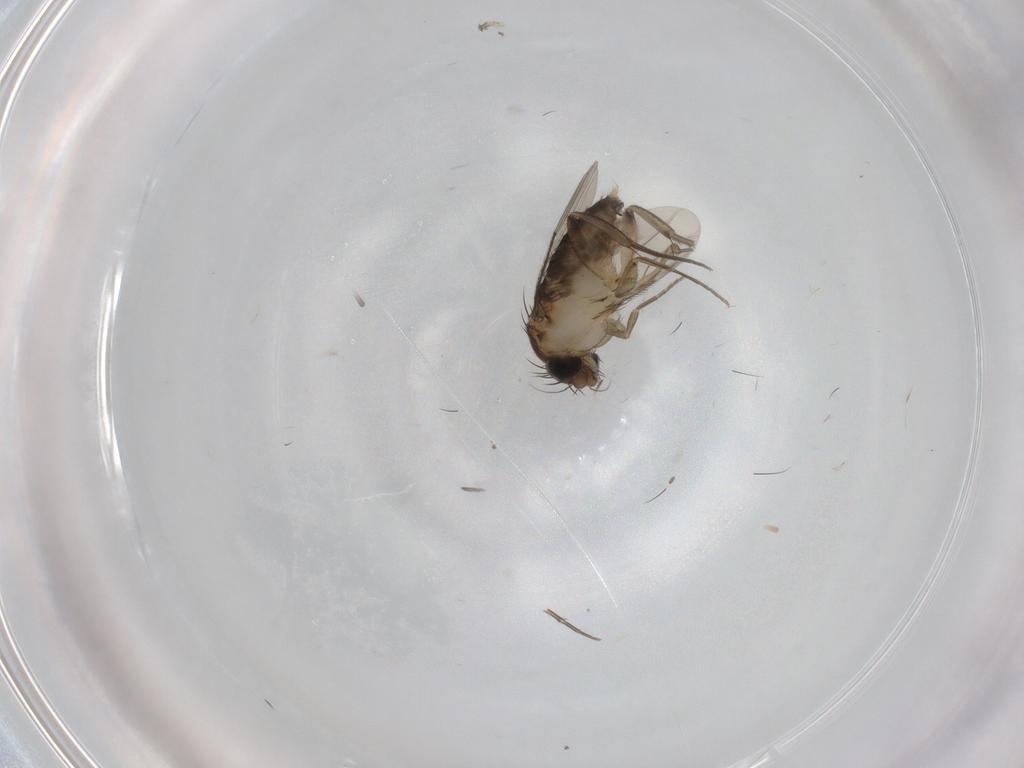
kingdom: Animalia
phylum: Arthropoda
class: Insecta
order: Diptera
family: Phoridae
